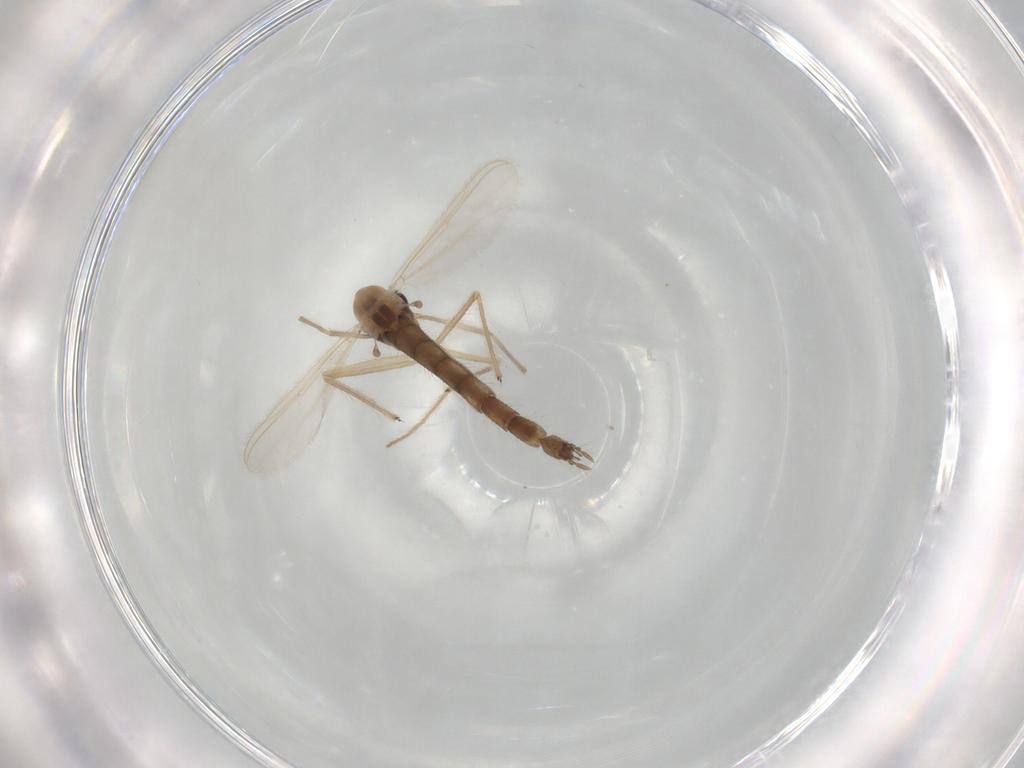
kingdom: Animalia
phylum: Arthropoda
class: Insecta
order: Diptera
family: Chironomidae
